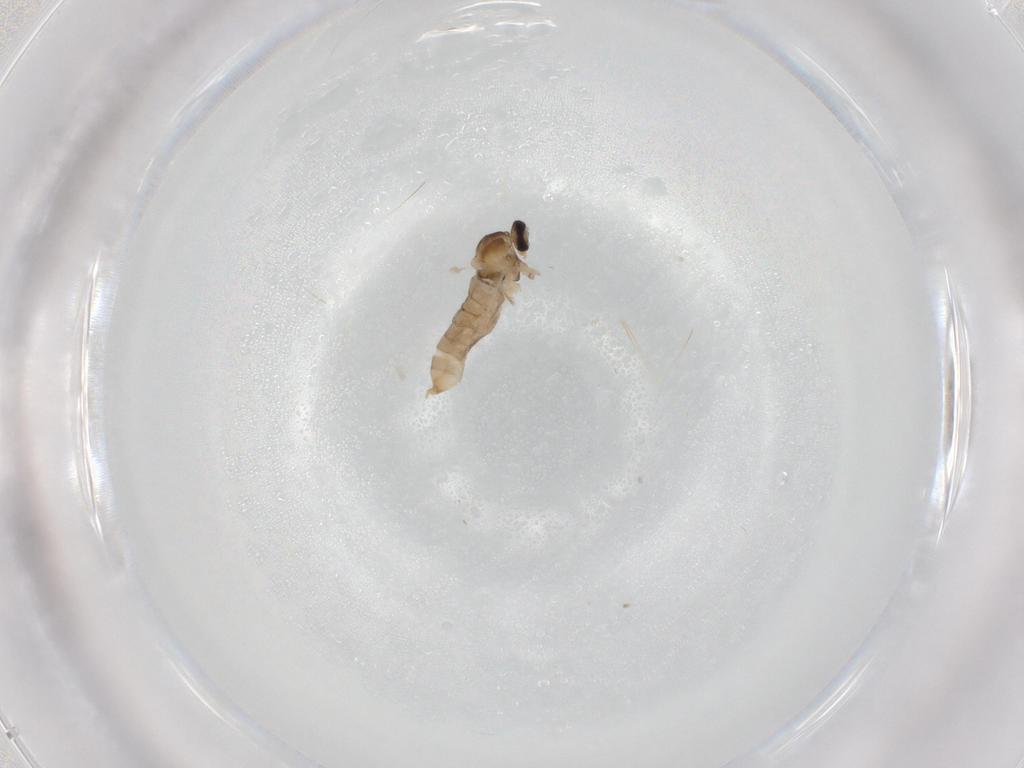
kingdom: Animalia
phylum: Arthropoda
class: Insecta
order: Diptera
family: Cecidomyiidae
